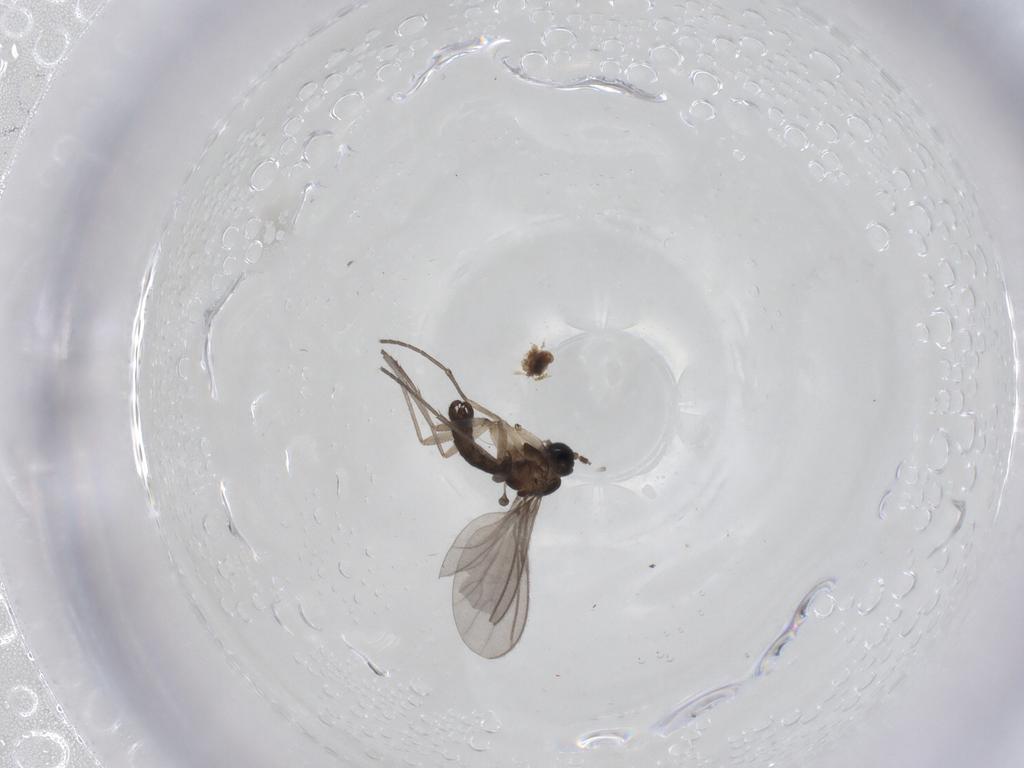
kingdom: Animalia
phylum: Arthropoda
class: Insecta
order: Diptera
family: Sciaridae
